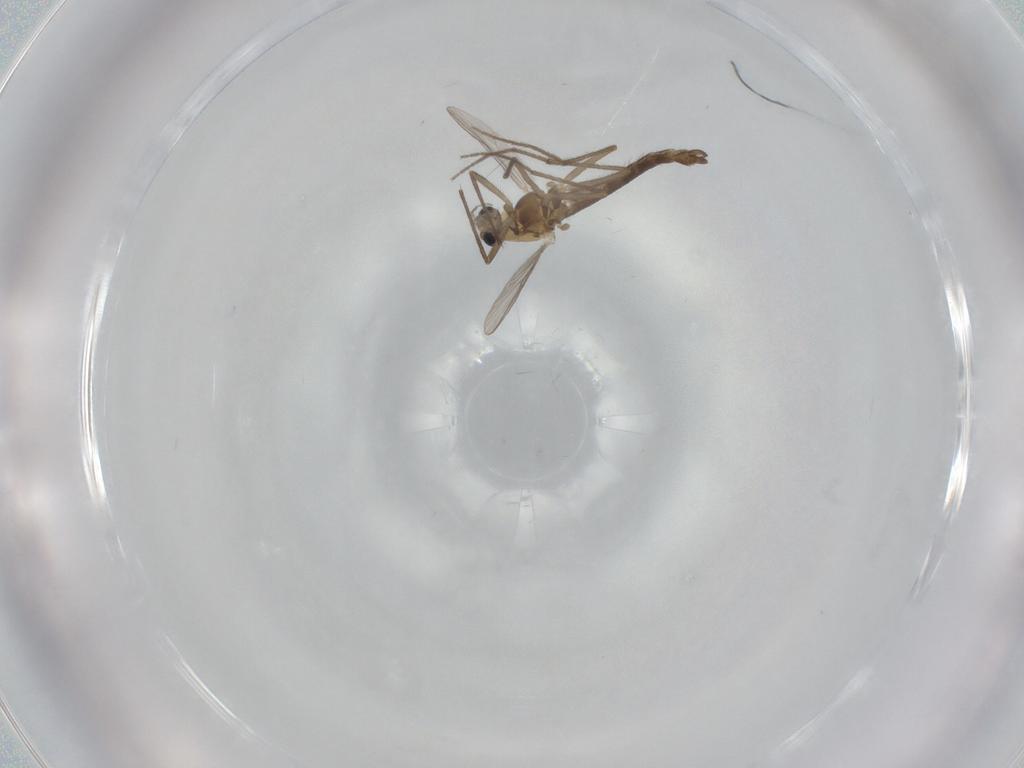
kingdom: Animalia
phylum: Arthropoda
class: Insecta
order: Diptera
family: Chironomidae
